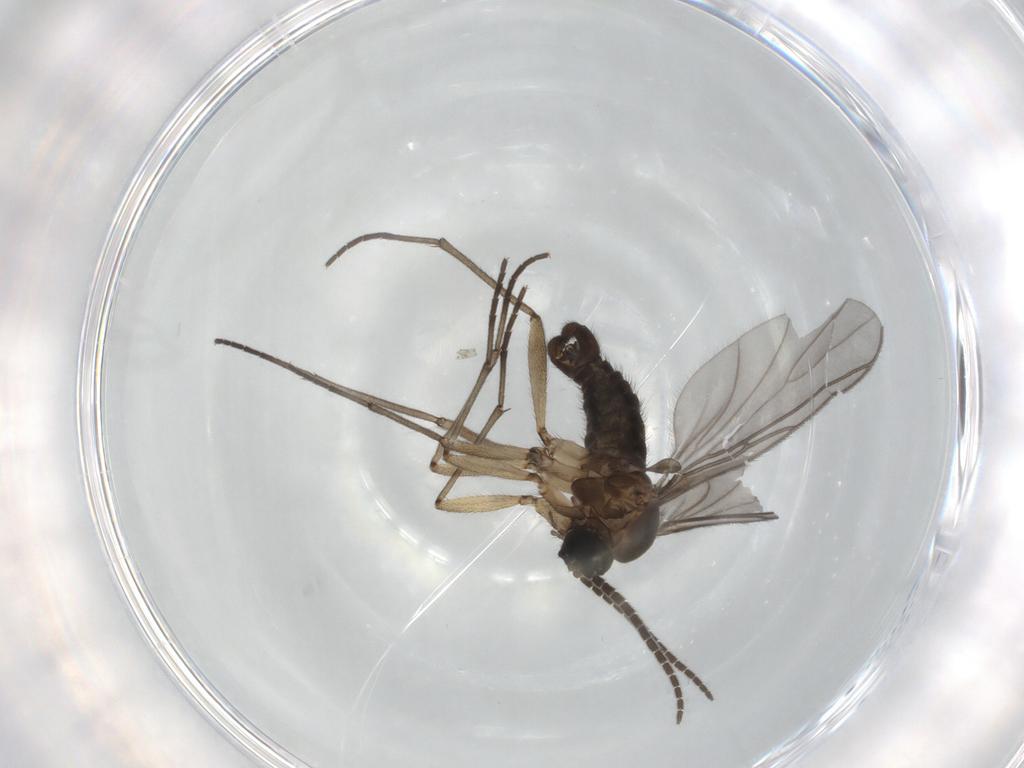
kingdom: Animalia
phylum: Arthropoda
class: Insecta
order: Diptera
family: Sciaridae
